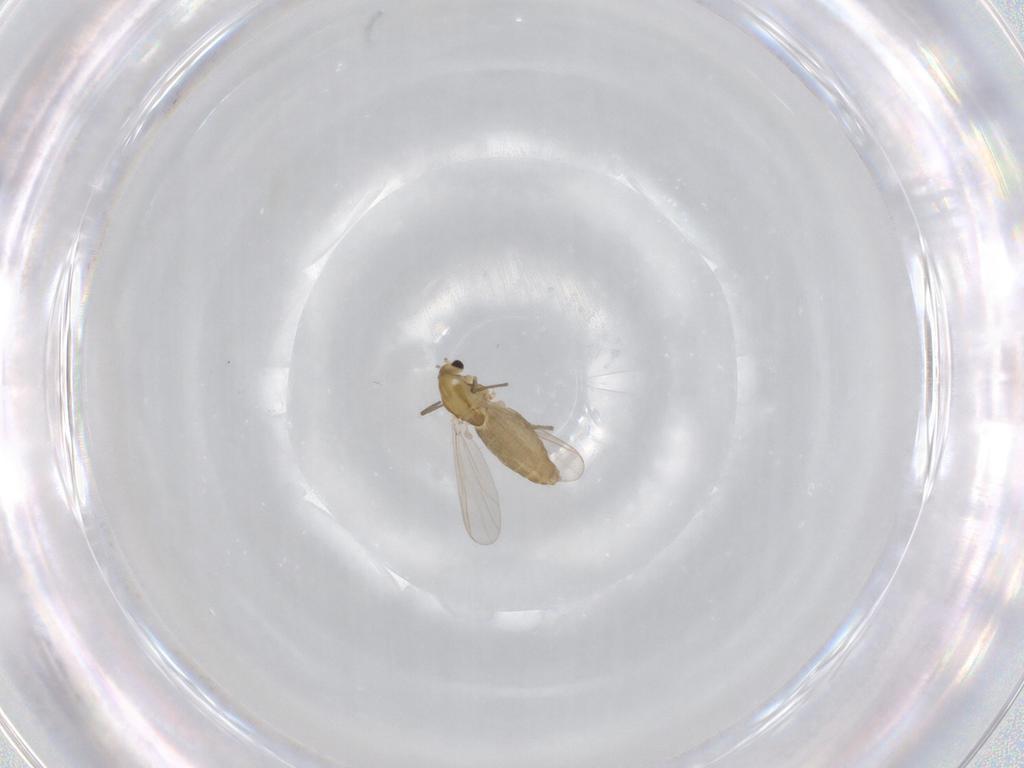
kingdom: Animalia
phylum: Arthropoda
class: Insecta
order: Diptera
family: Chironomidae
